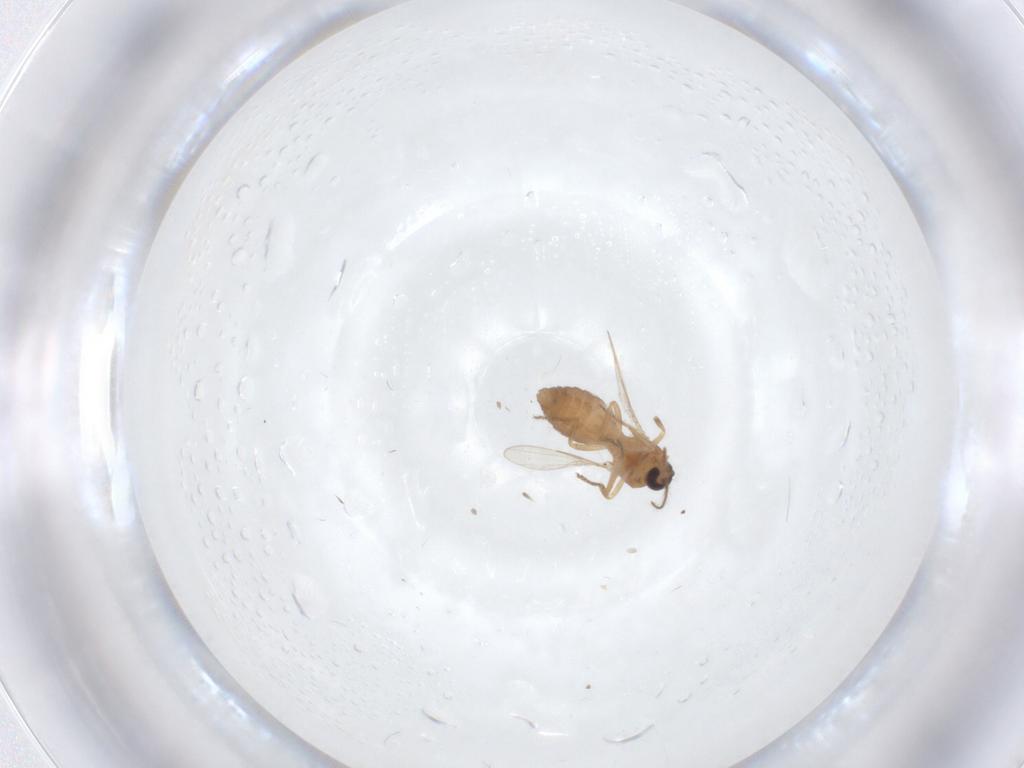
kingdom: Animalia
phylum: Arthropoda
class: Insecta
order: Diptera
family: Ceratopogonidae
